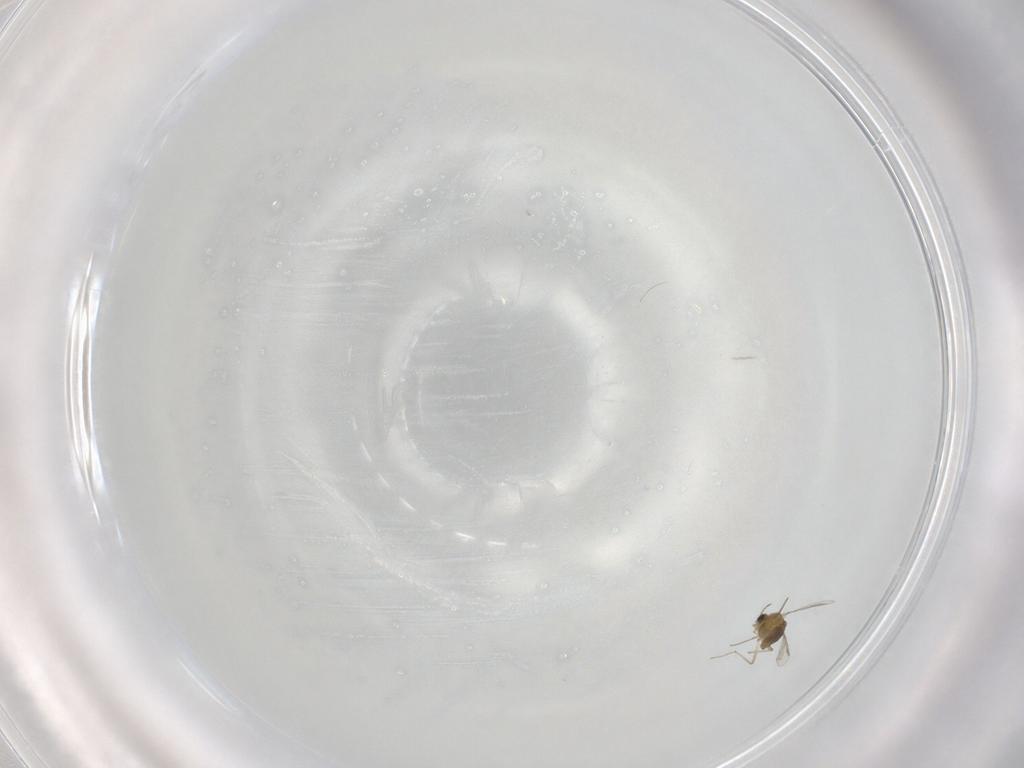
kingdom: Animalia
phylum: Arthropoda
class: Insecta
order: Diptera
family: Chironomidae
